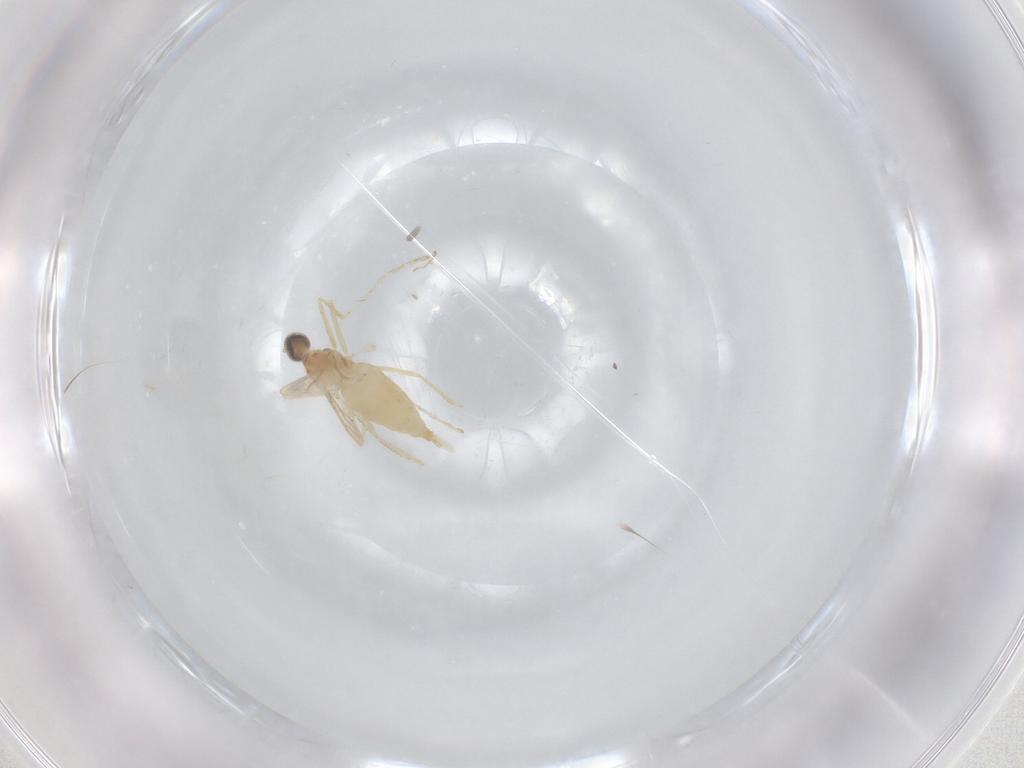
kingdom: Animalia
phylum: Arthropoda
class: Insecta
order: Diptera
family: Cecidomyiidae
